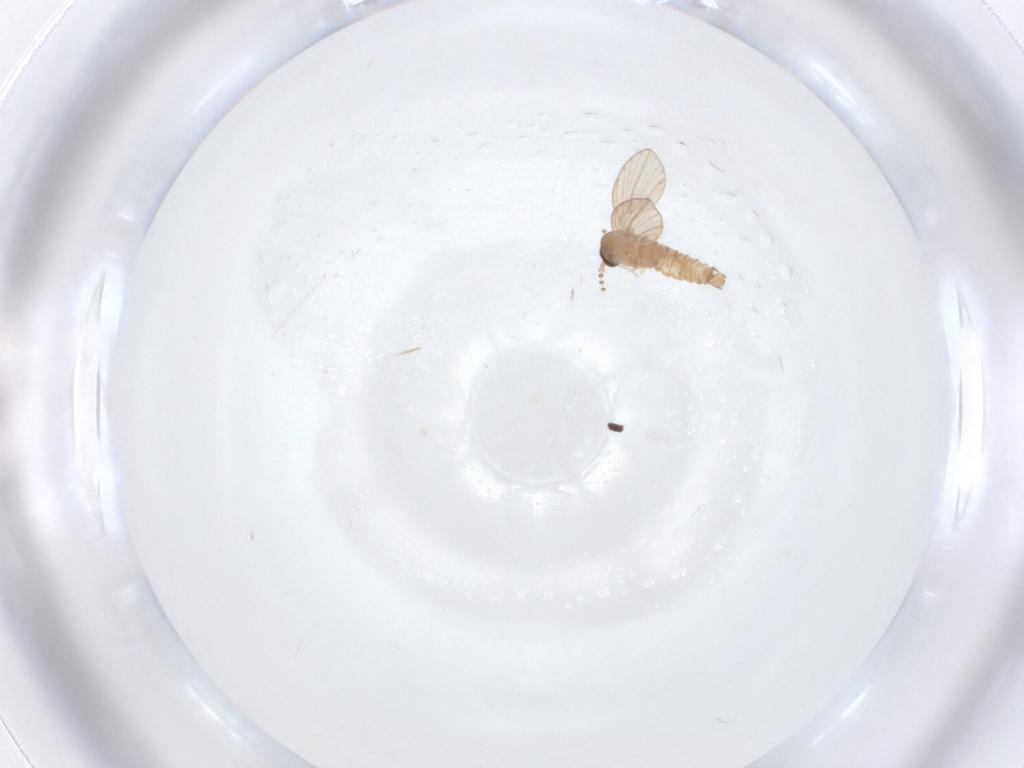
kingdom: Animalia
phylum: Arthropoda
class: Insecta
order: Diptera
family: Psychodidae
